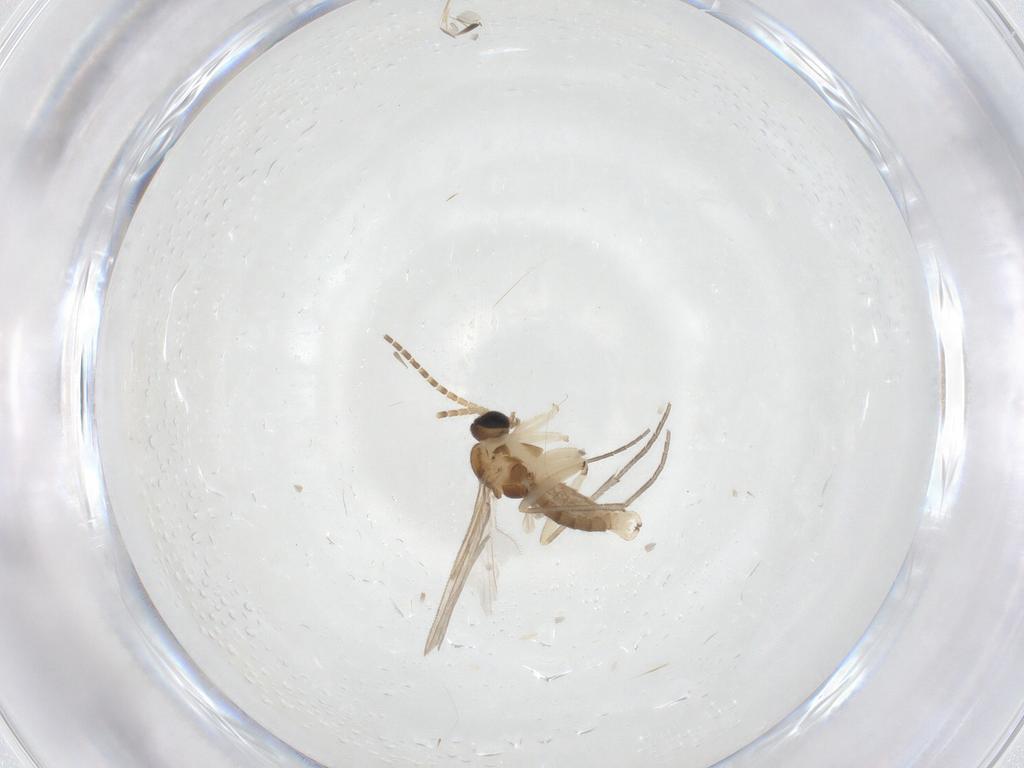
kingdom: Animalia
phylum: Arthropoda
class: Insecta
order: Diptera
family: Sciaridae
